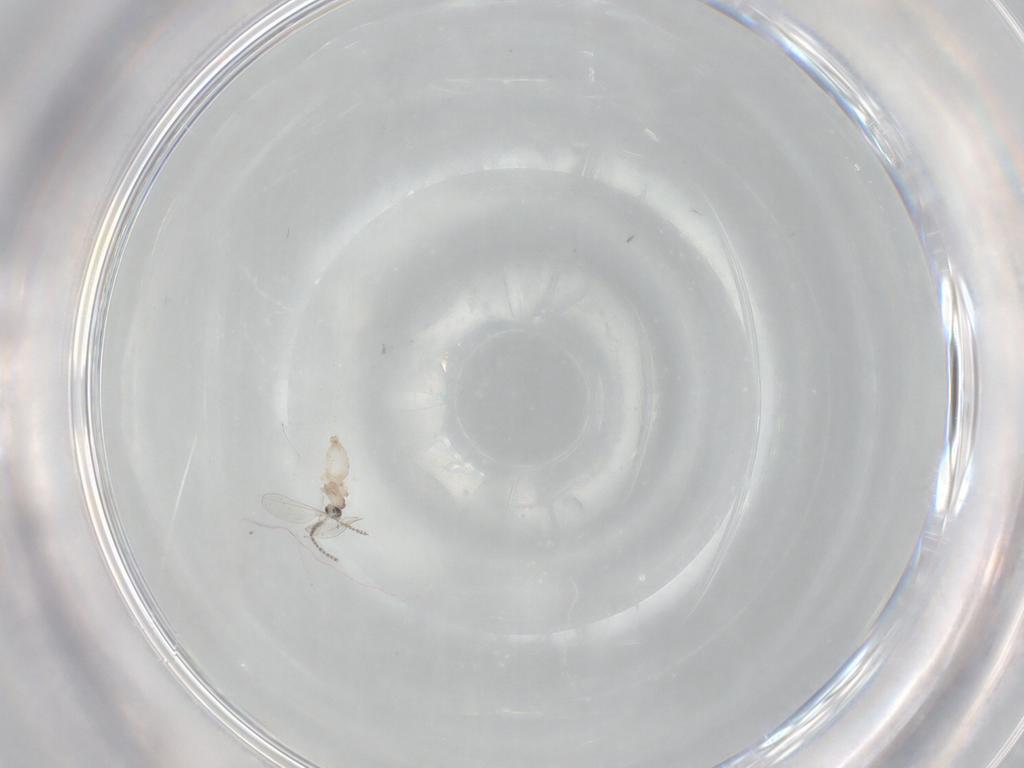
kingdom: Animalia
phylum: Arthropoda
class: Insecta
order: Diptera
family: Cecidomyiidae
